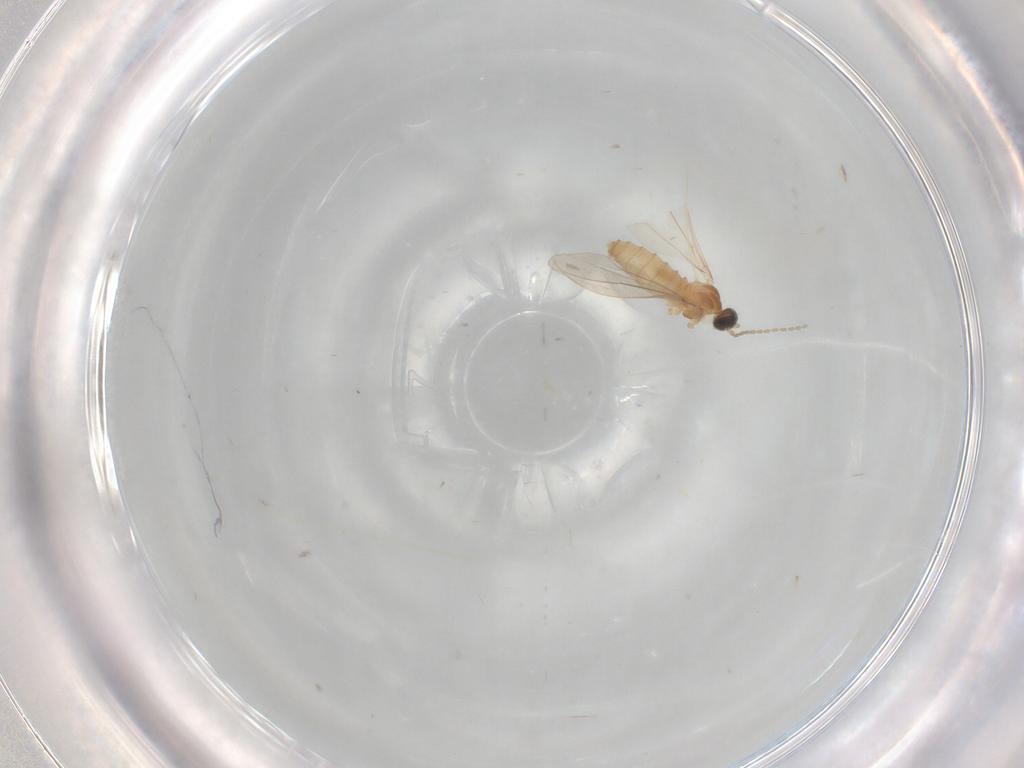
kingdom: Animalia
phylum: Arthropoda
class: Insecta
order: Diptera
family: Cecidomyiidae
